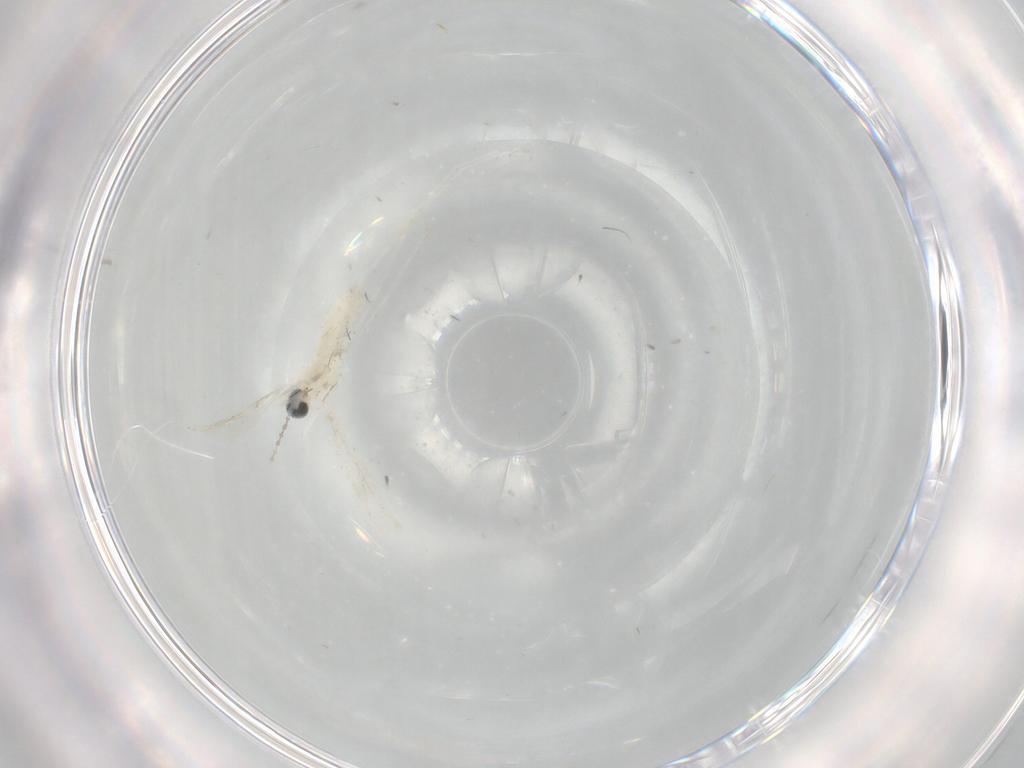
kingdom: Animalia
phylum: Arthropoda
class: Insecta
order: Diptera
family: Cecidomyiidae
